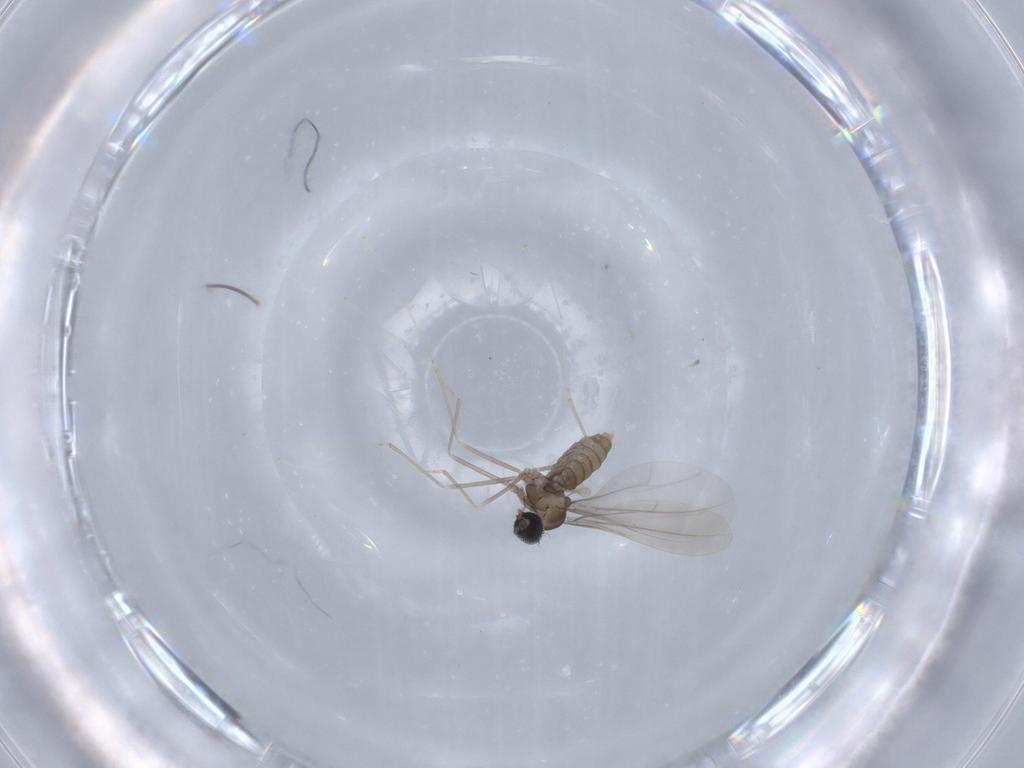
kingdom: Animalia
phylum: Arthropoda
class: Insecta
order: Diptera
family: Cecidomyiidae
